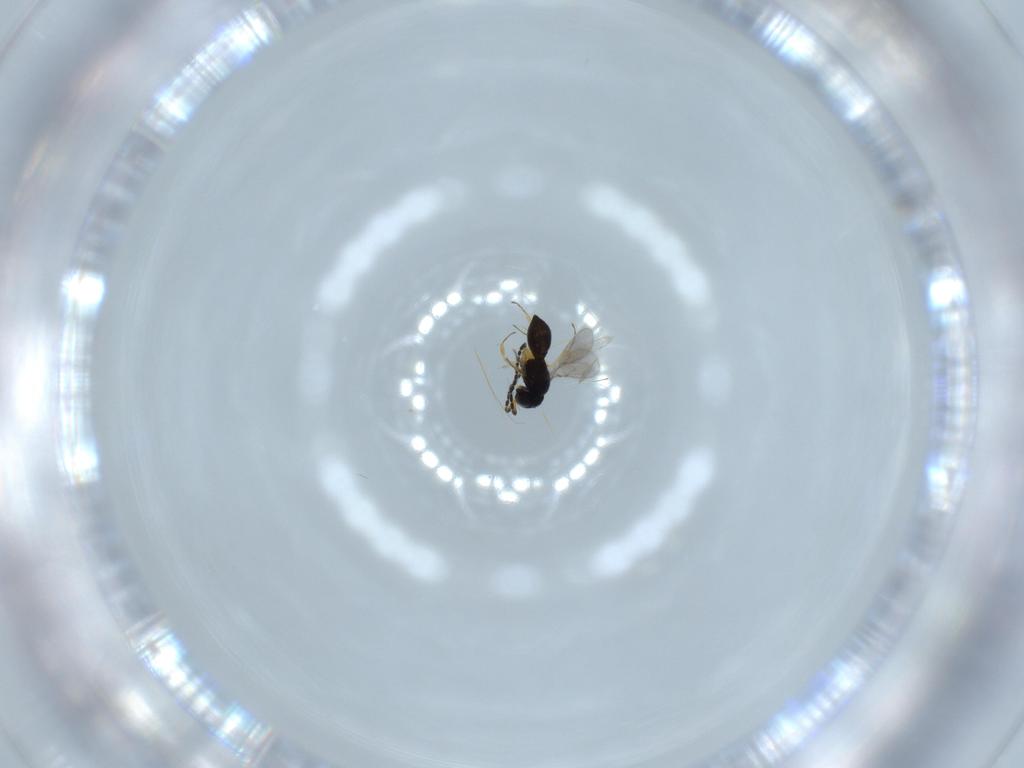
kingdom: Animalia
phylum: Arthropoda
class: Insecta
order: Hymenoptera
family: Scelionidae
